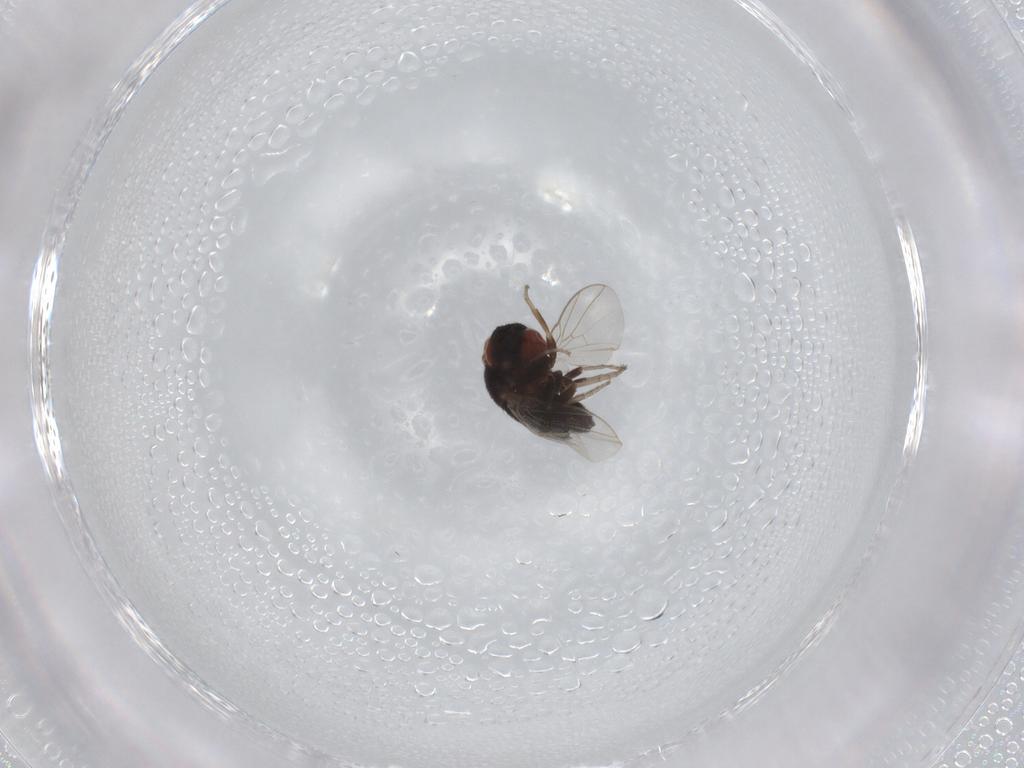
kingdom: Animalia
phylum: Arthropoda
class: Insecta
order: Diptera
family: Cryptochetidae
